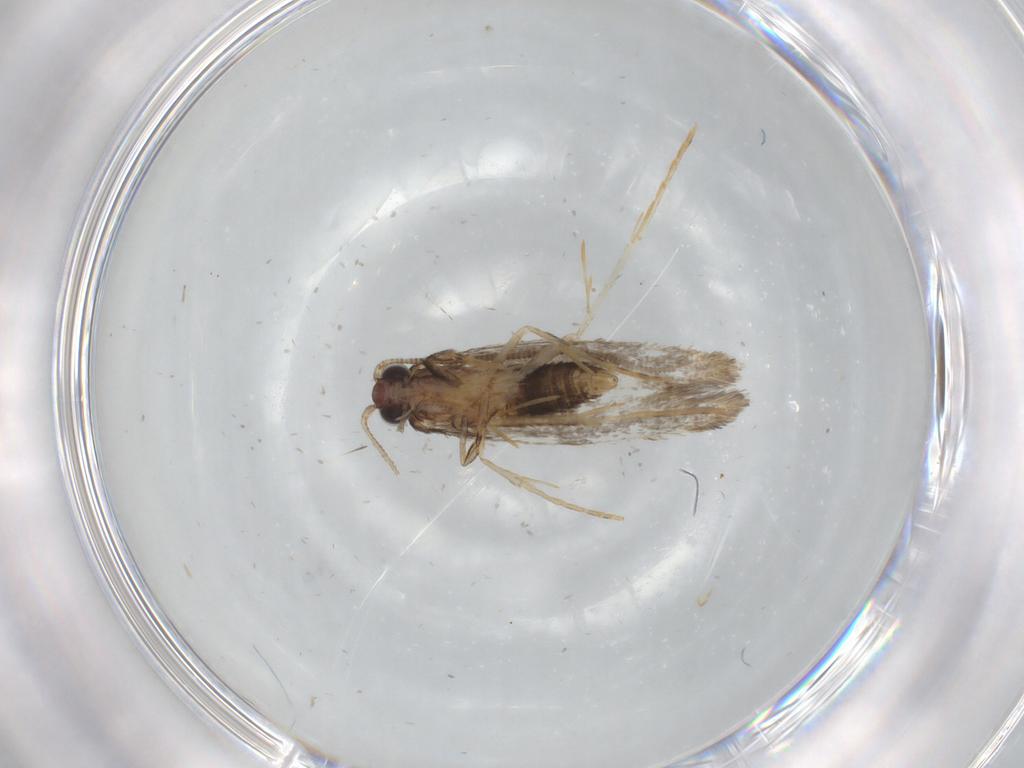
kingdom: Animalia
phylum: Arthropoda
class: Insecta
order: Lepidoptera
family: Tineidae
